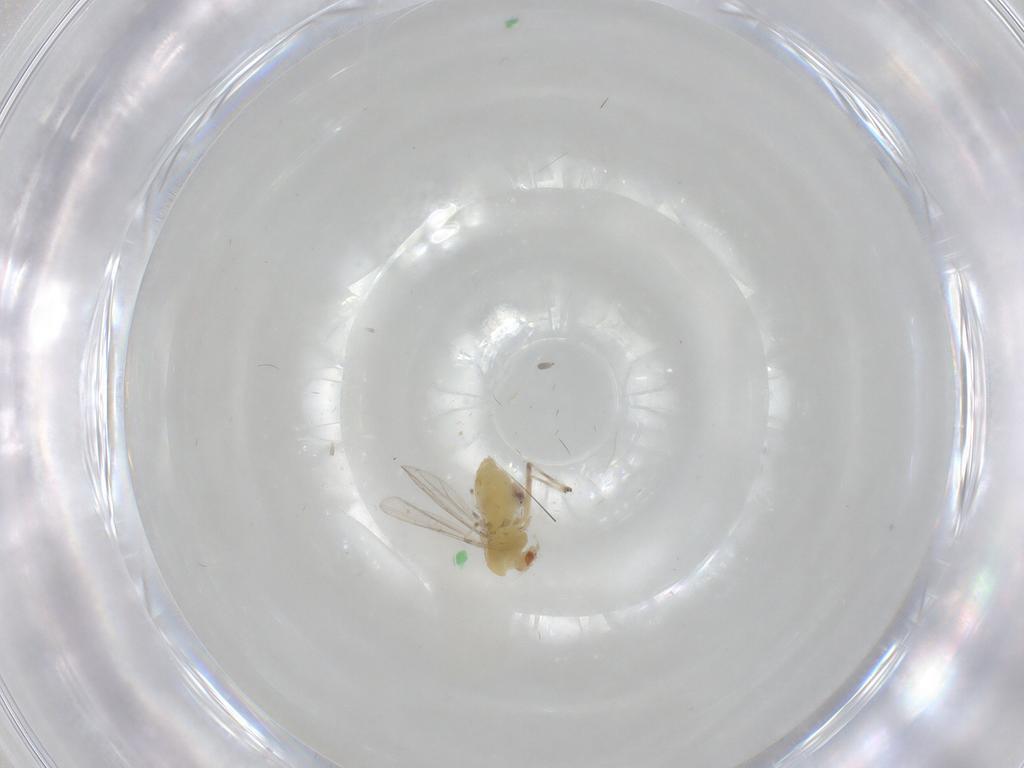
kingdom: Animalia
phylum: Arthropoda
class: Insecta
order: Diptera
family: Chironomidae
